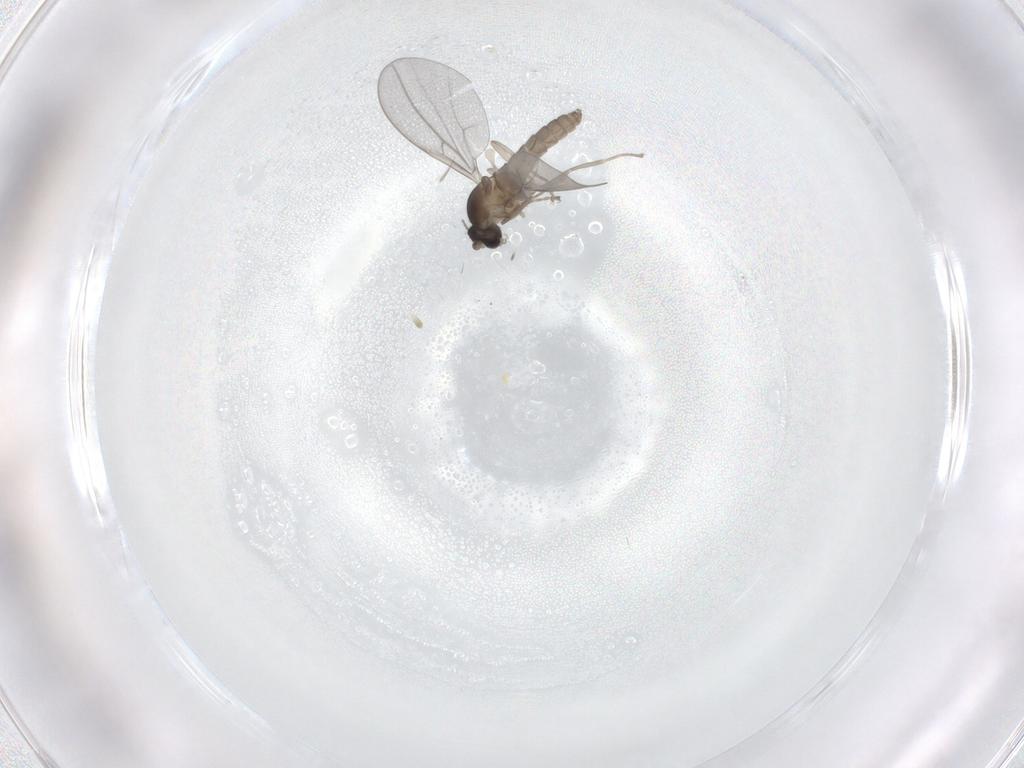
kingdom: Animalia
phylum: Arthropoda
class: Insecta
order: Diptera
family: Cecidomyiidae
